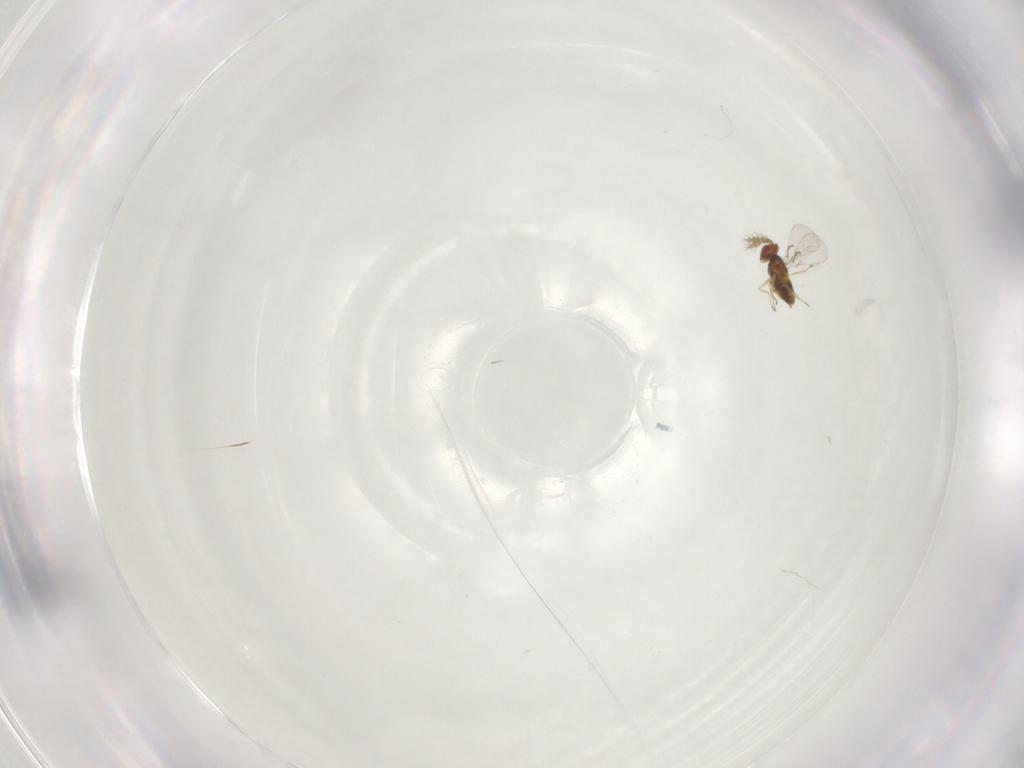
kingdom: Animalia
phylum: Arthropoda
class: Insecta
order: Hymenoptera
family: Trichogrammatidae
